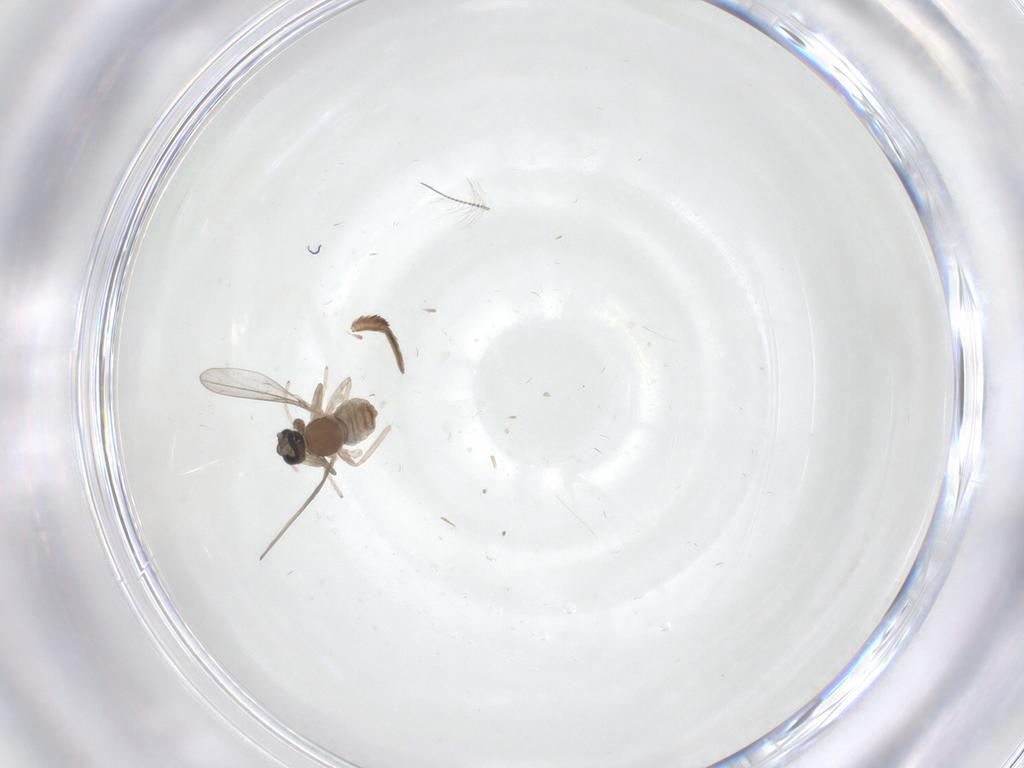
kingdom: Animalia
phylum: Arthropoda
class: Insecta
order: Diptera
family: Cecidomyiidae
